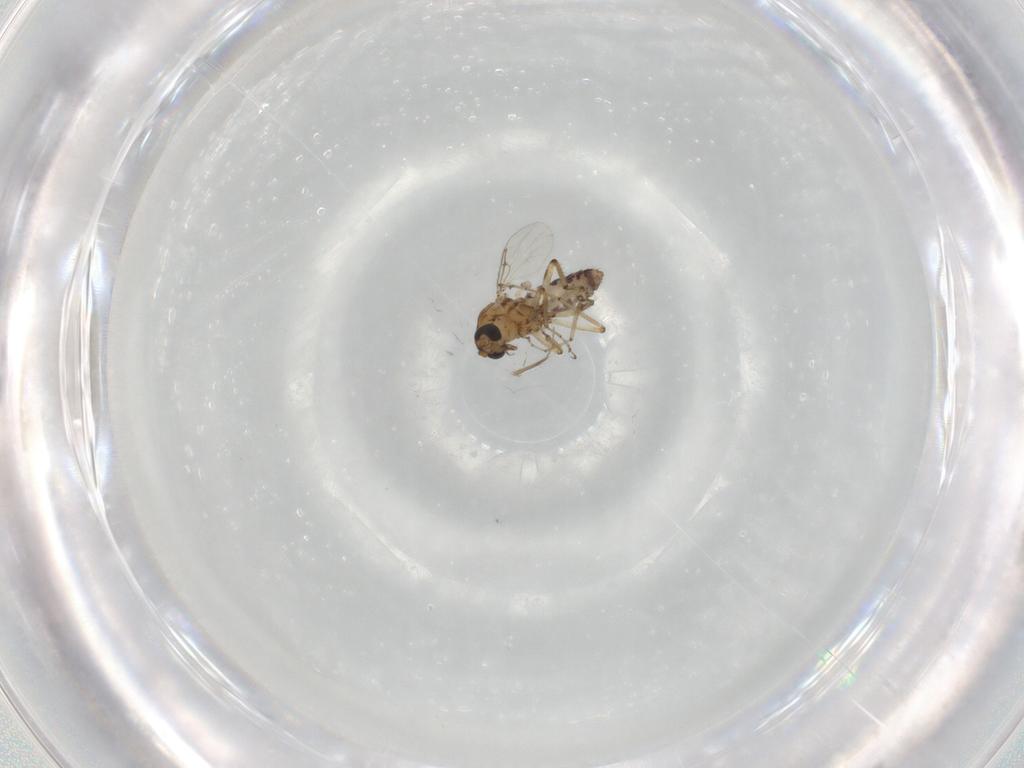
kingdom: Animalia
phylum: Arthropoda
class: Insecta
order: Diptera
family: Ceratopogonidae
